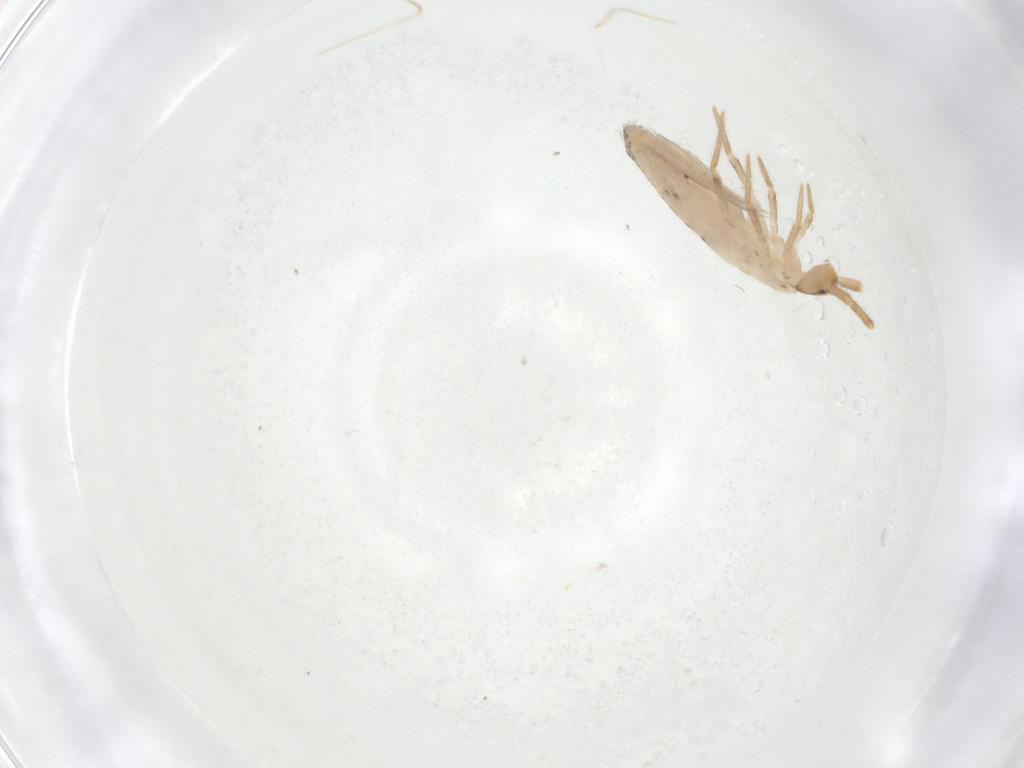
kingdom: Animalia
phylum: Arthropoda
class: Collembola
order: Entomobryomorpha
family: Entomobryidae
